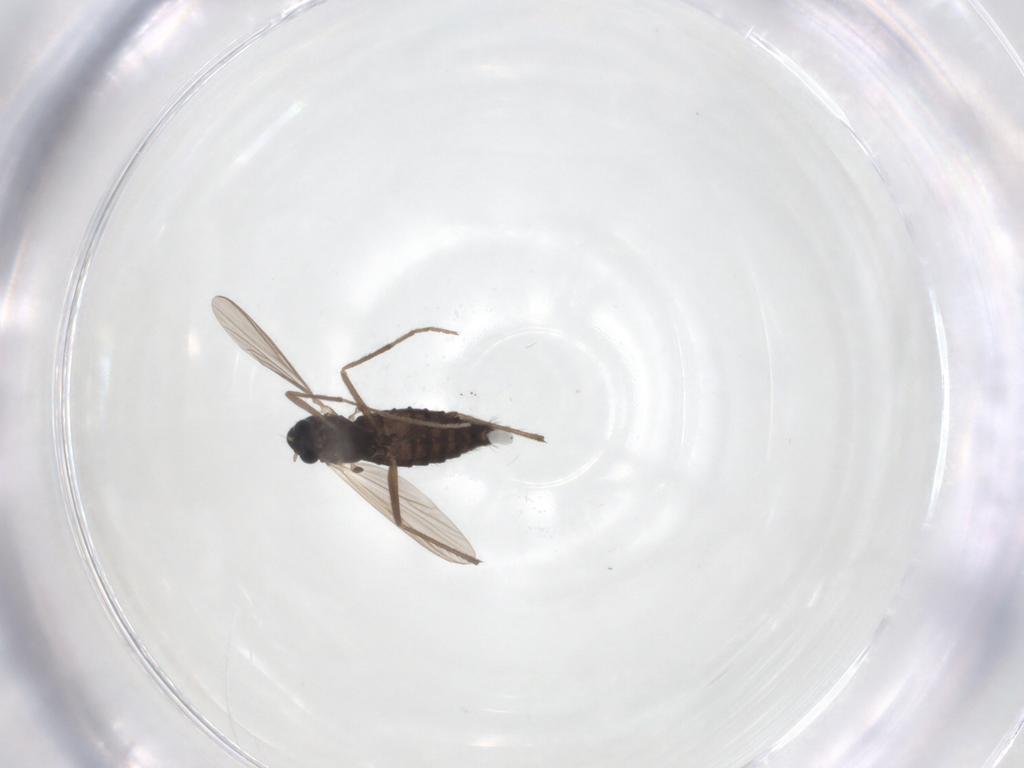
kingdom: Animalia
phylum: Arthropoda
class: Insecta
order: Diptera
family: Chironomidae
